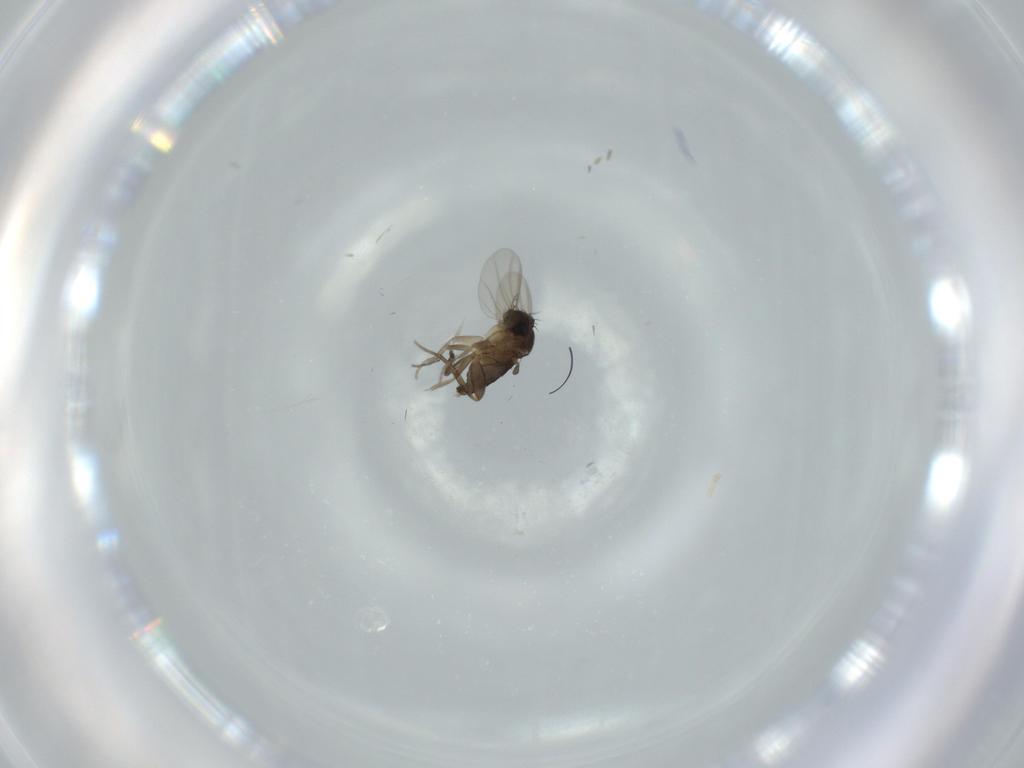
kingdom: Animalia
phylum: Arthropoda
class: Insecta
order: Diptera
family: Phoridae
